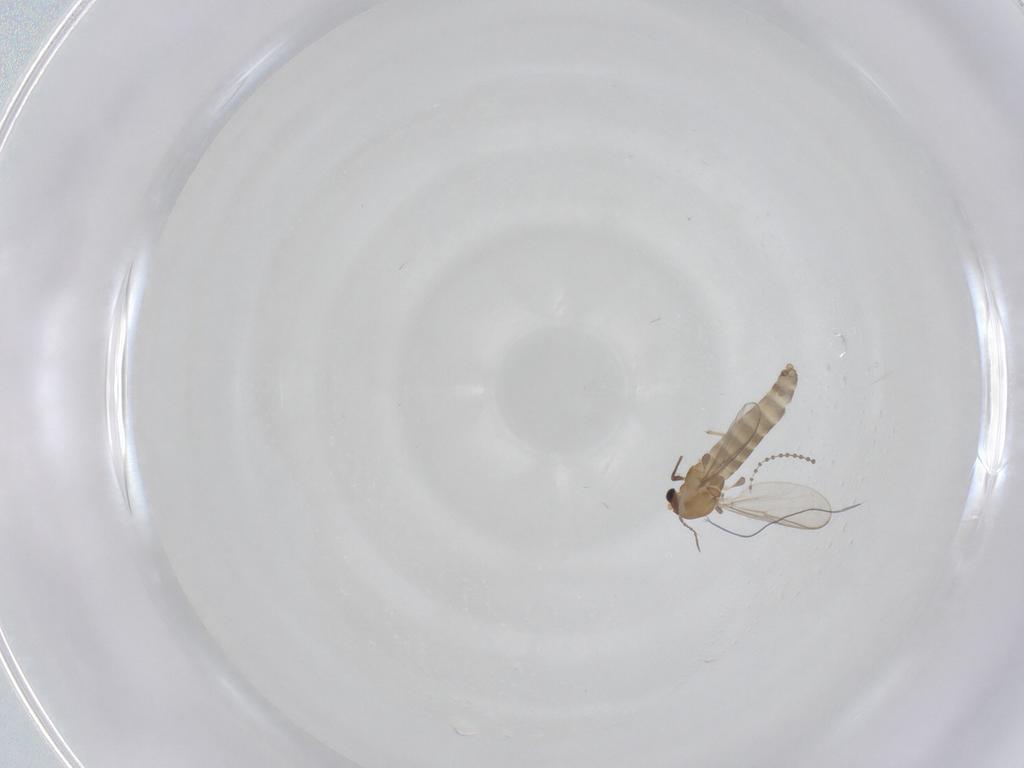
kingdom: Animalia
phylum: Arthropoda
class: Insecta
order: Diptera
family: Chironomidae
